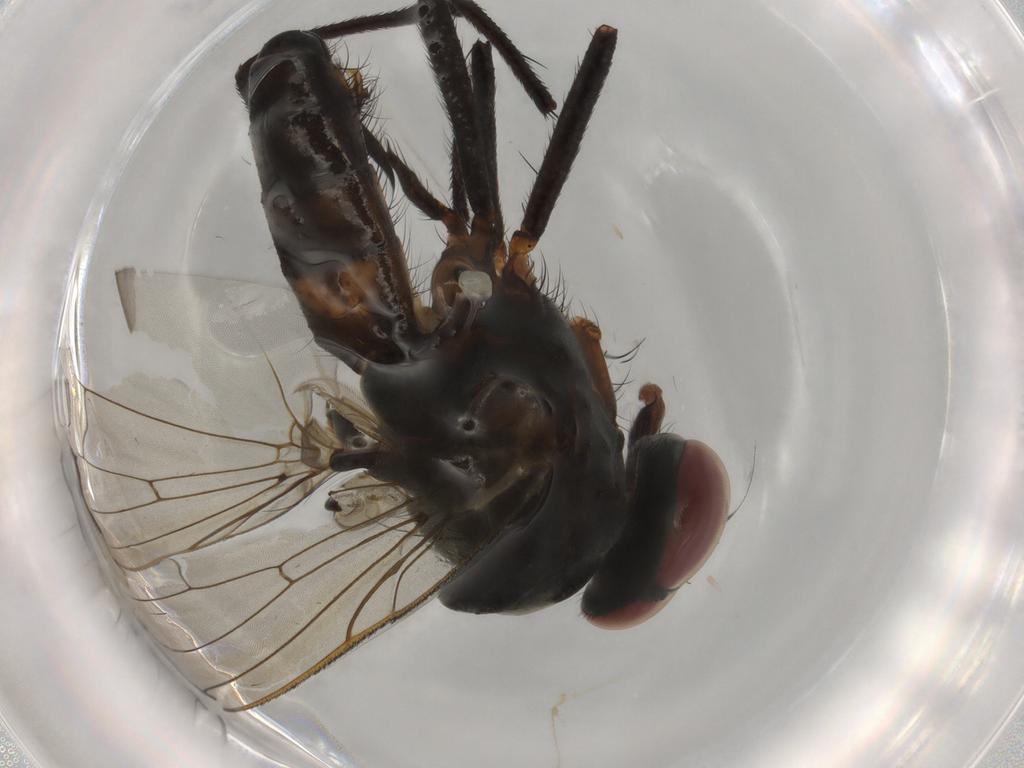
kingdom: Animalia
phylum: Arthropoda
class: Insecta
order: Diptera
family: Anthomyiidae
